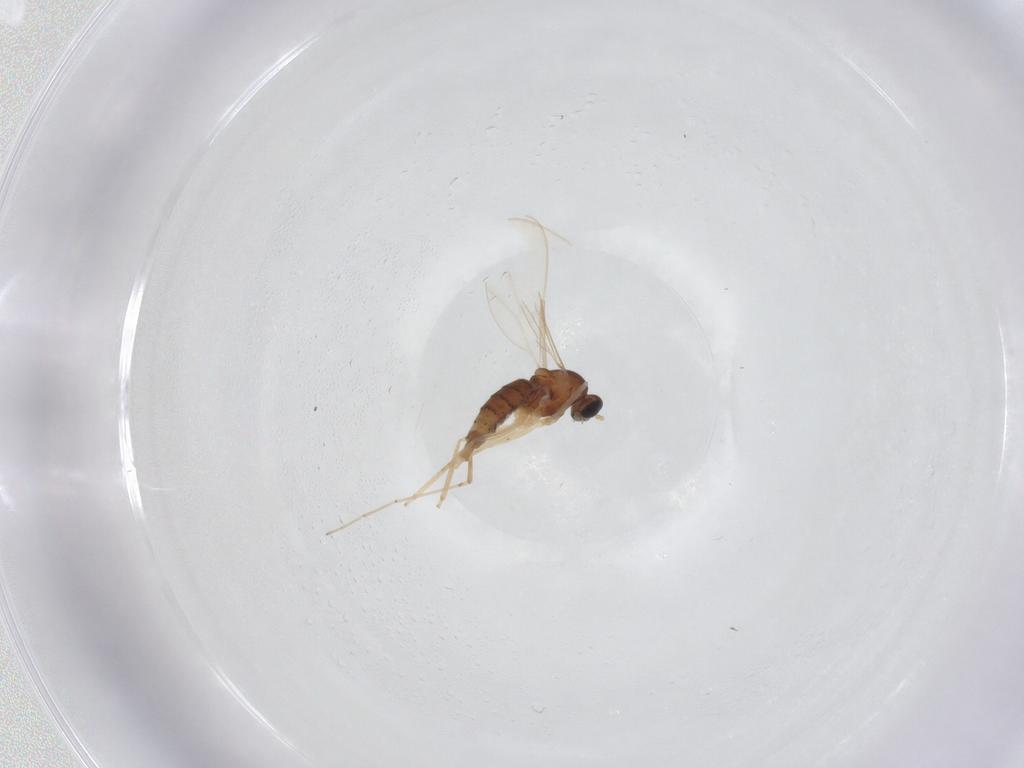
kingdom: Animalia
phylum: Arthropoda
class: Insecta
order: Diptera
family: Cecidomyiidae
